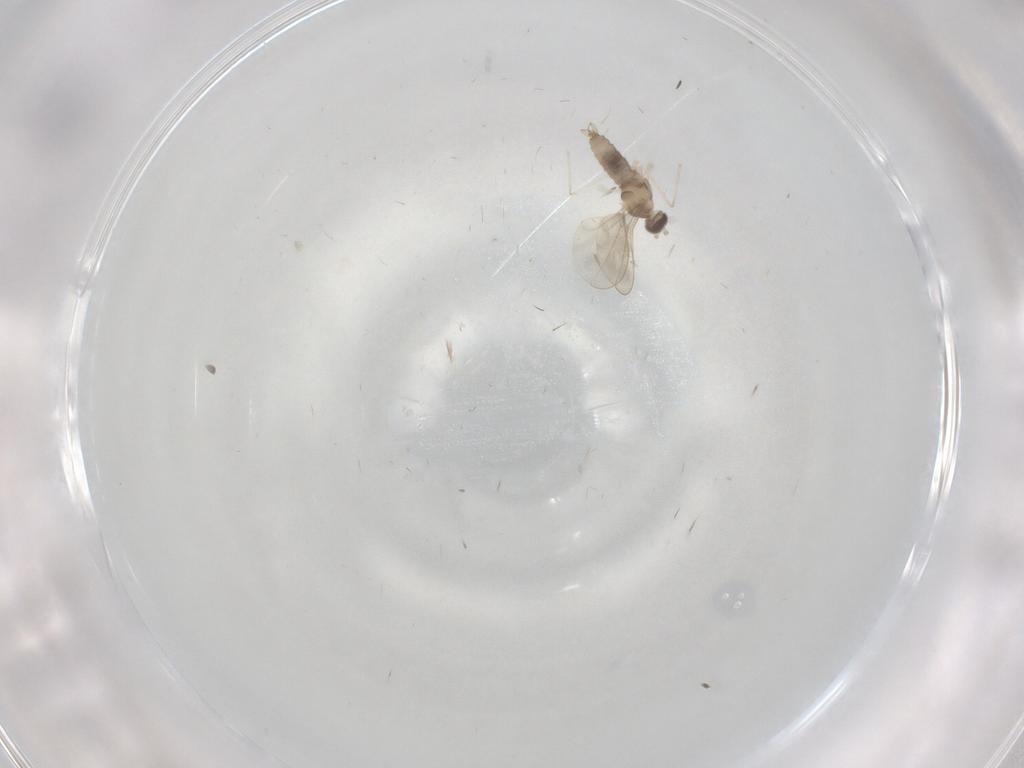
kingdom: Animalia
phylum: Arthropoda
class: Insecta
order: Diptera
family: Cecidomyiidae
